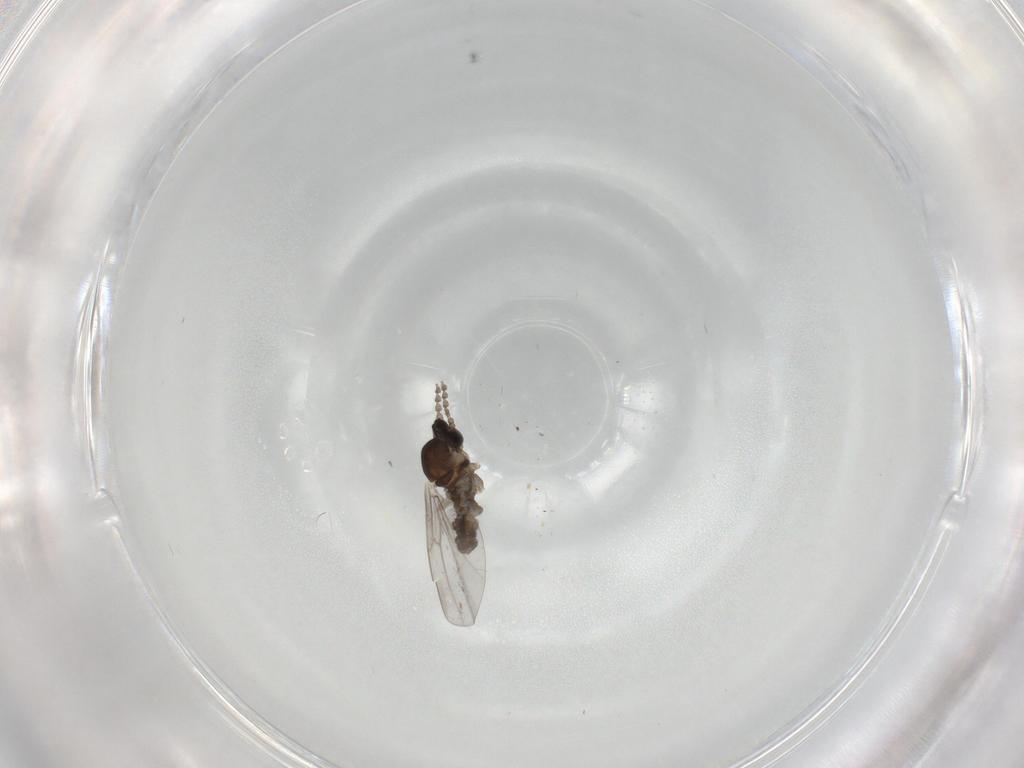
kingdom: Animalia
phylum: Arthropoda
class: Insecta
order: Diptera
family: Cecidomyiidae
